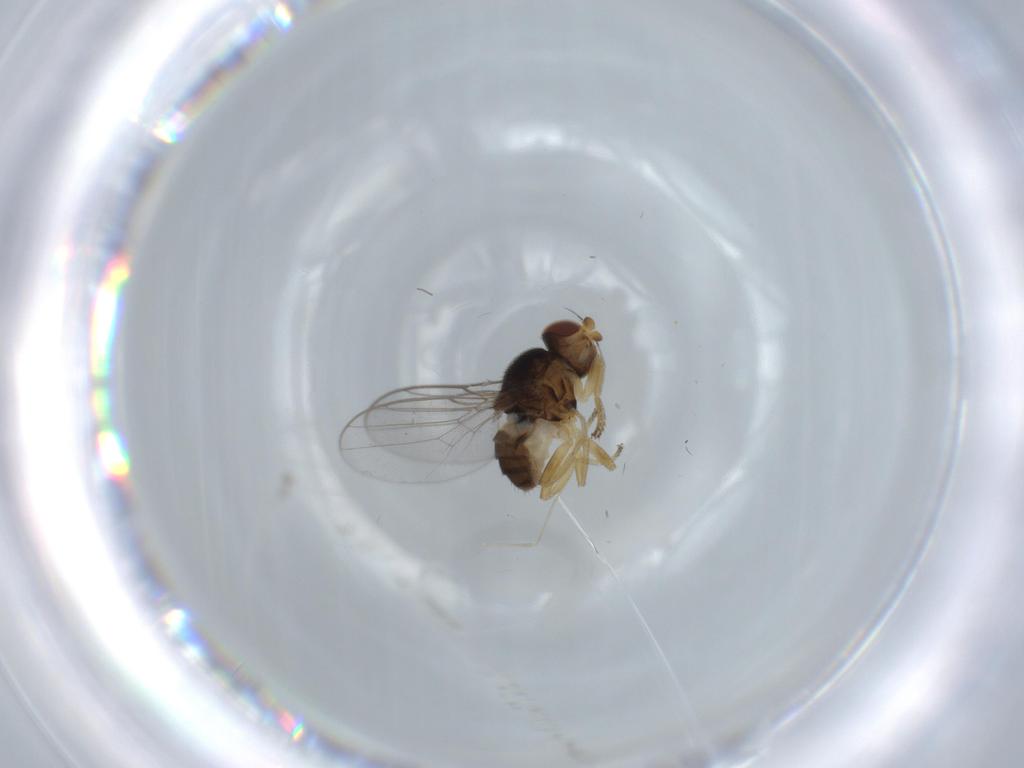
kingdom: Animalia
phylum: Arthropoda
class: Insecta
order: Diptera
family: Chloropidae
